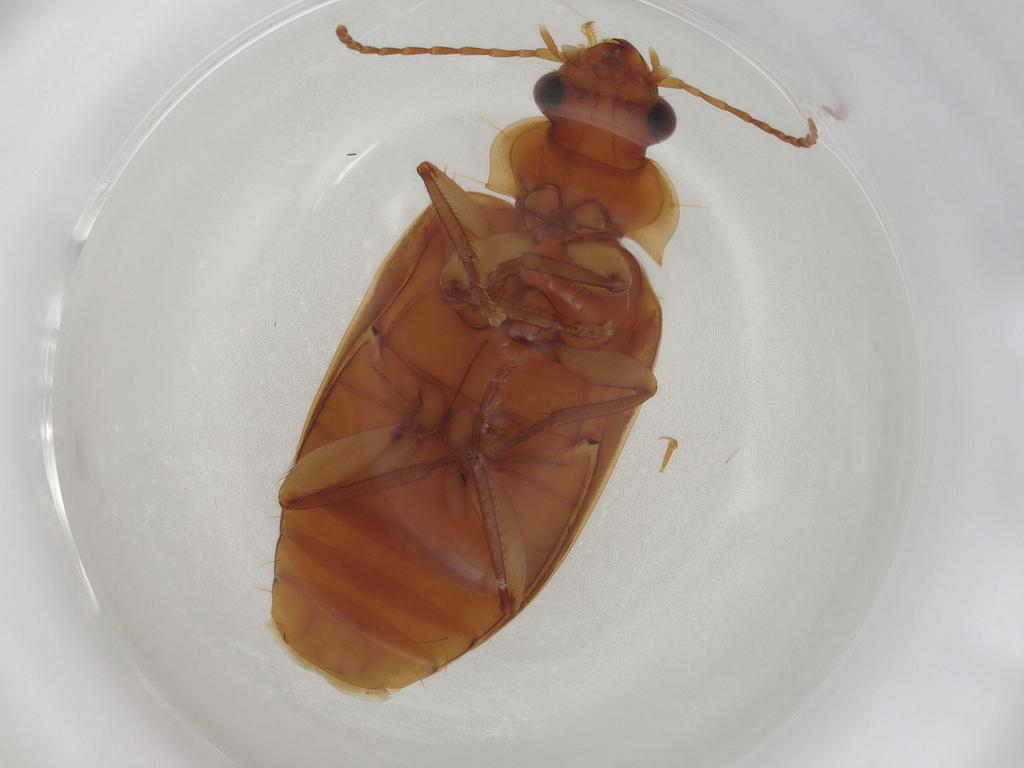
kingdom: Animalia
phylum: Arthropoda
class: Insecta
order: Coleoptera
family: Carabidae
